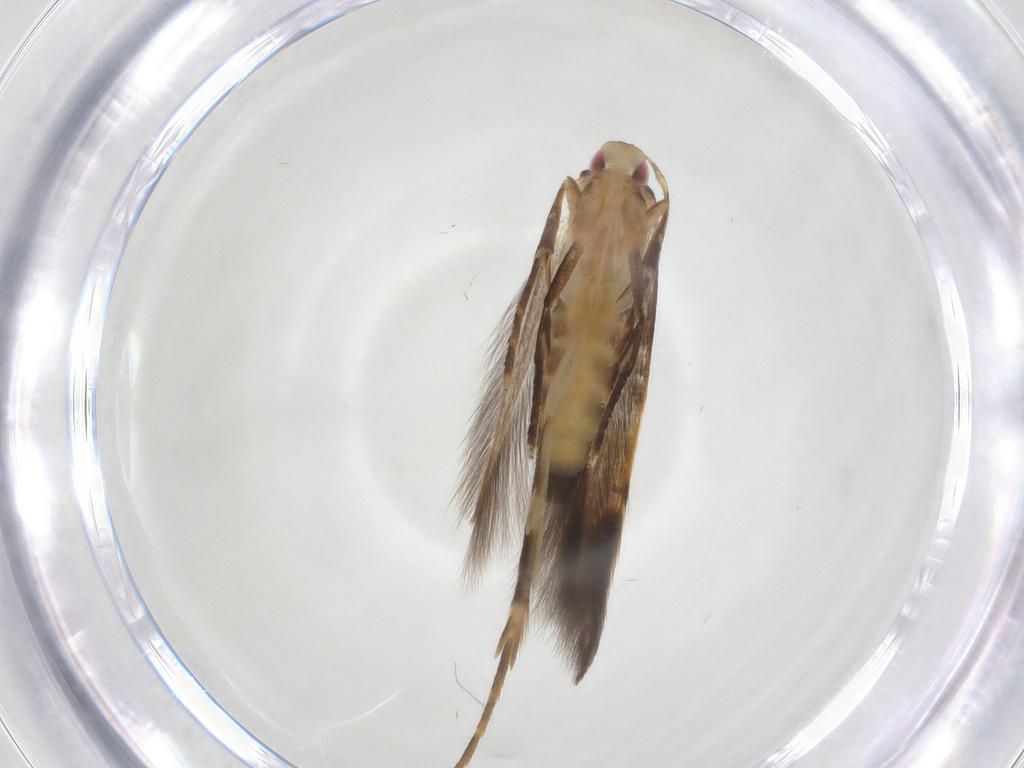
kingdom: Animalia
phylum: Arthropoda
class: Insecta
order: Lepidoptera
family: Cosmopterigidae
